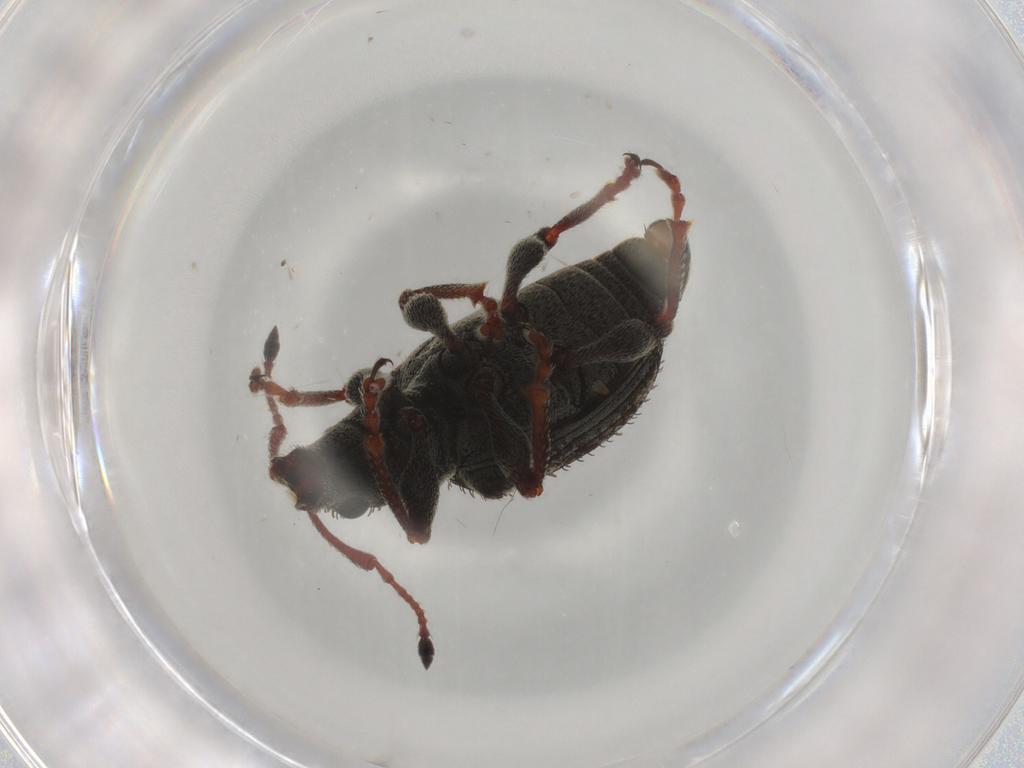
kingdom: Animalia
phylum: Arthropoda
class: Insecta
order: Coleoptera
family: Curculionidae
